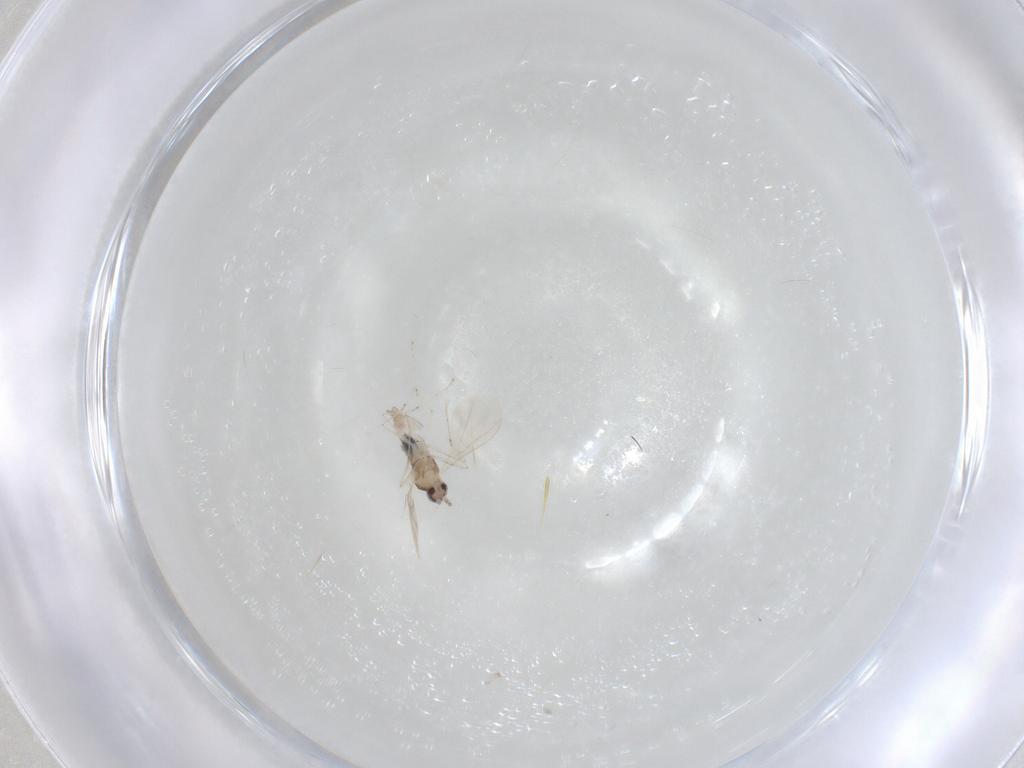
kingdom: Animalia
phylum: Arthropoda
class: Insecta
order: Diptera
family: Cecidomyiidae
